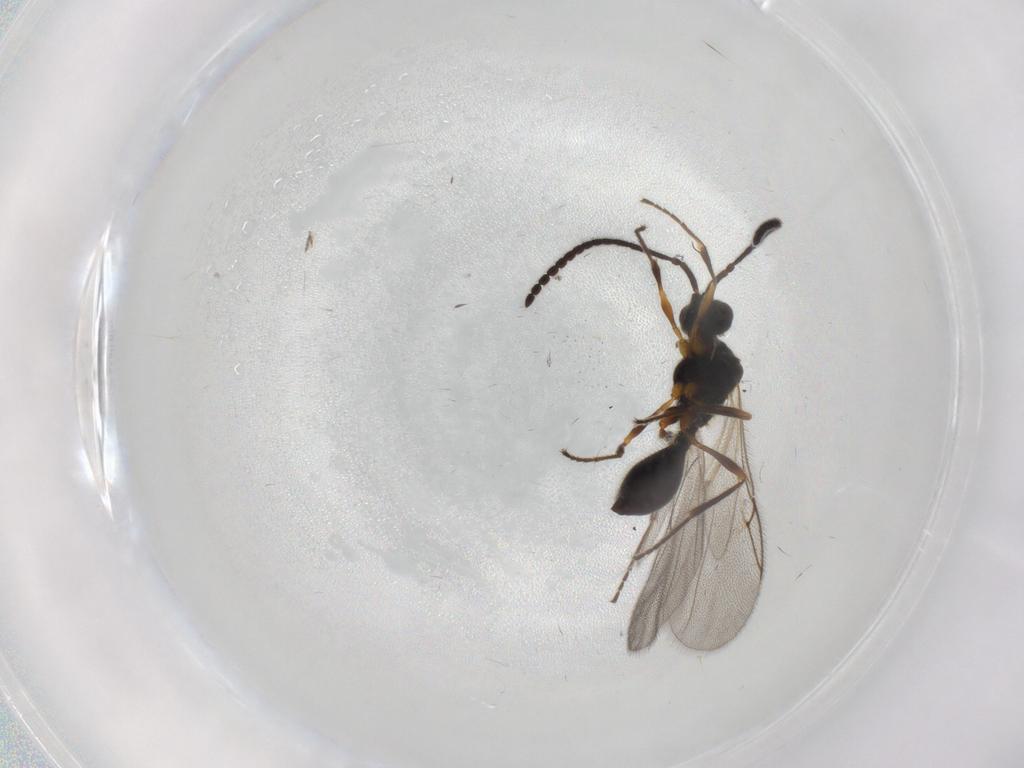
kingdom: Animalia
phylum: Arthropoda
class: Insecta
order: Hymenoptera
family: Diapriidae
